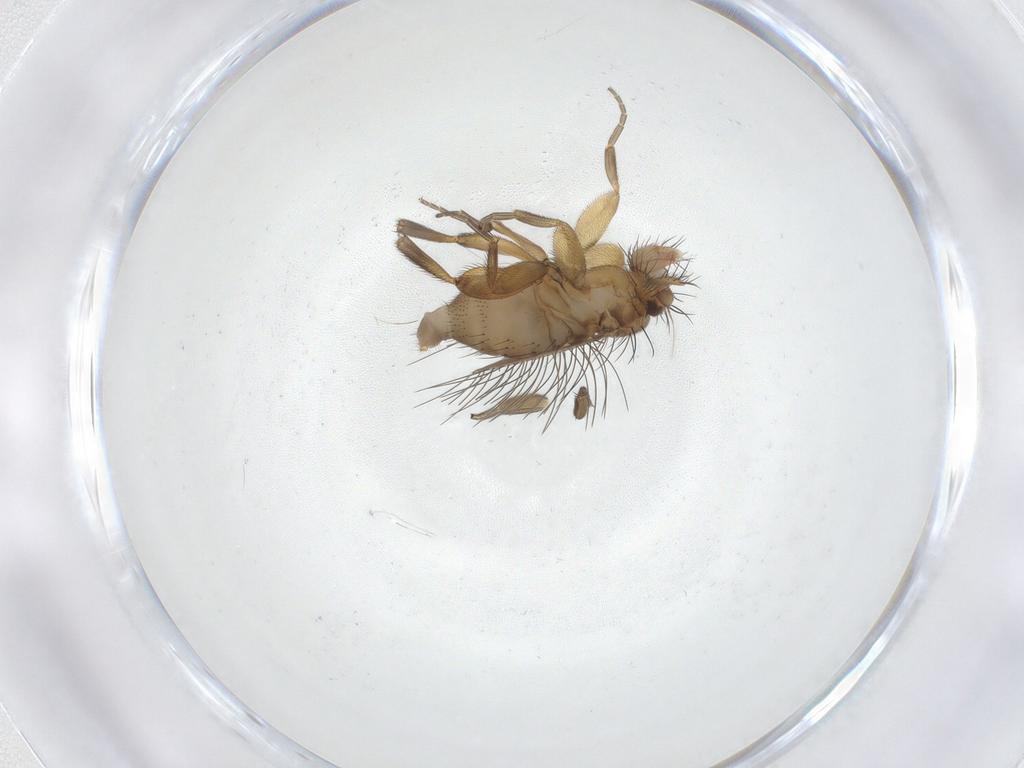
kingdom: Animalia
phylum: Arthropoda
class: Insecta
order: Diptera
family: Phoridae
